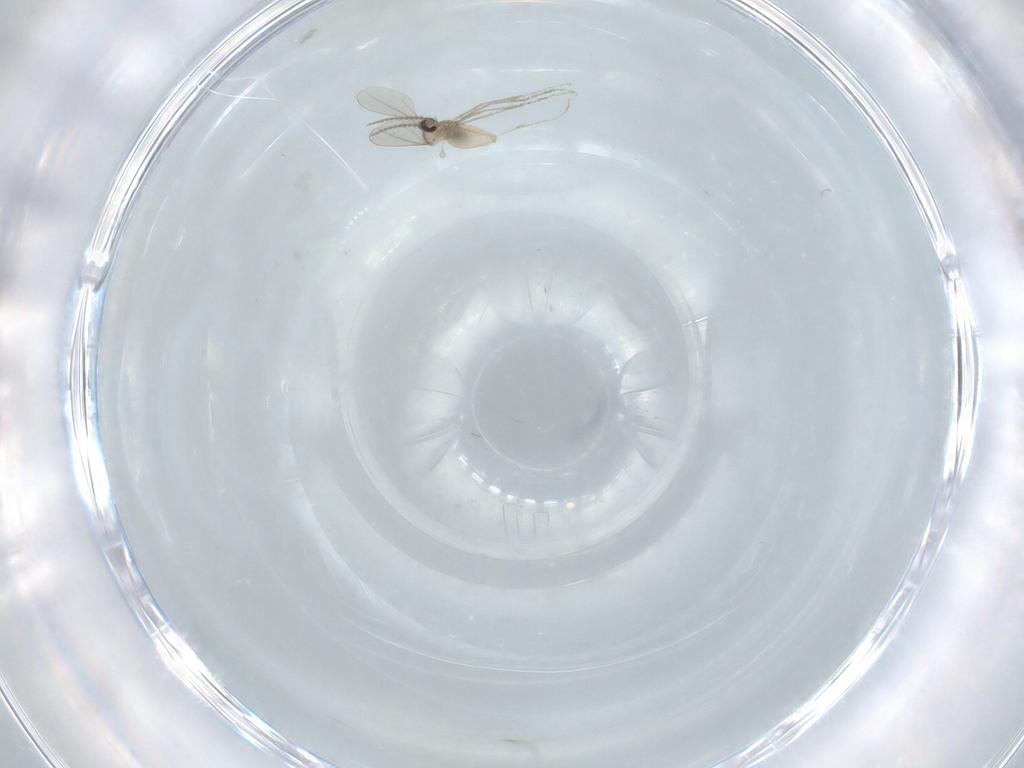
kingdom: Animalia
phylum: Arthropoda
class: Insecta
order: Diptera
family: Cecidomyiidae
